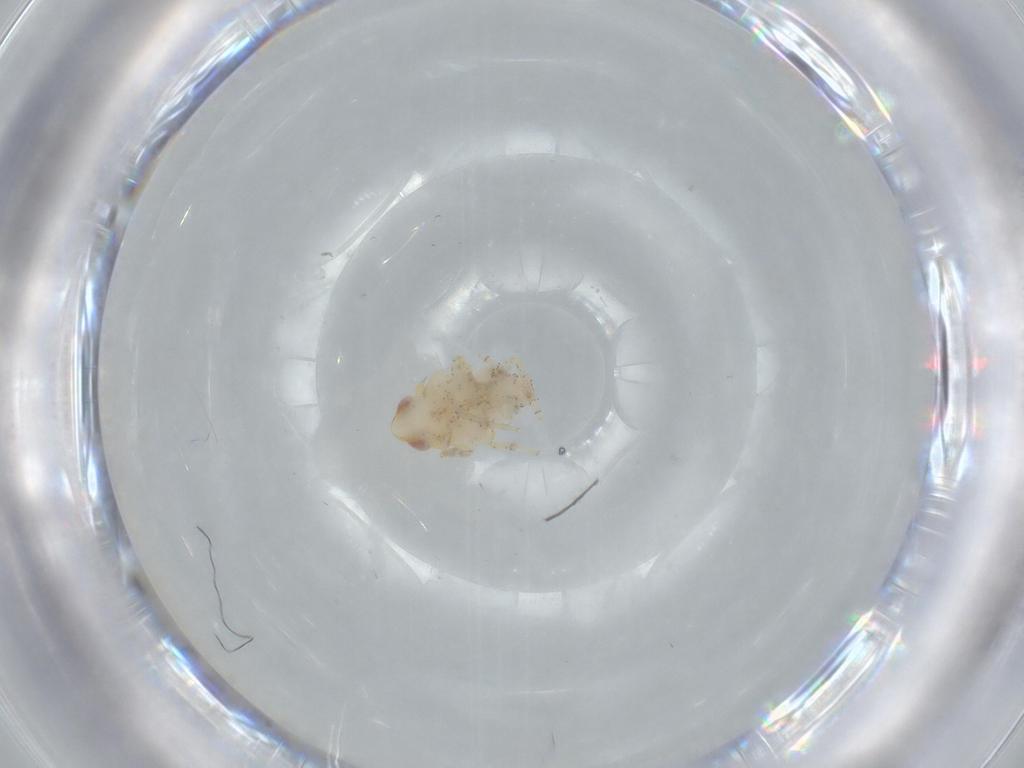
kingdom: Animalia
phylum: Arthropoda
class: Insecta
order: Hemiptera
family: Nogodinidae
